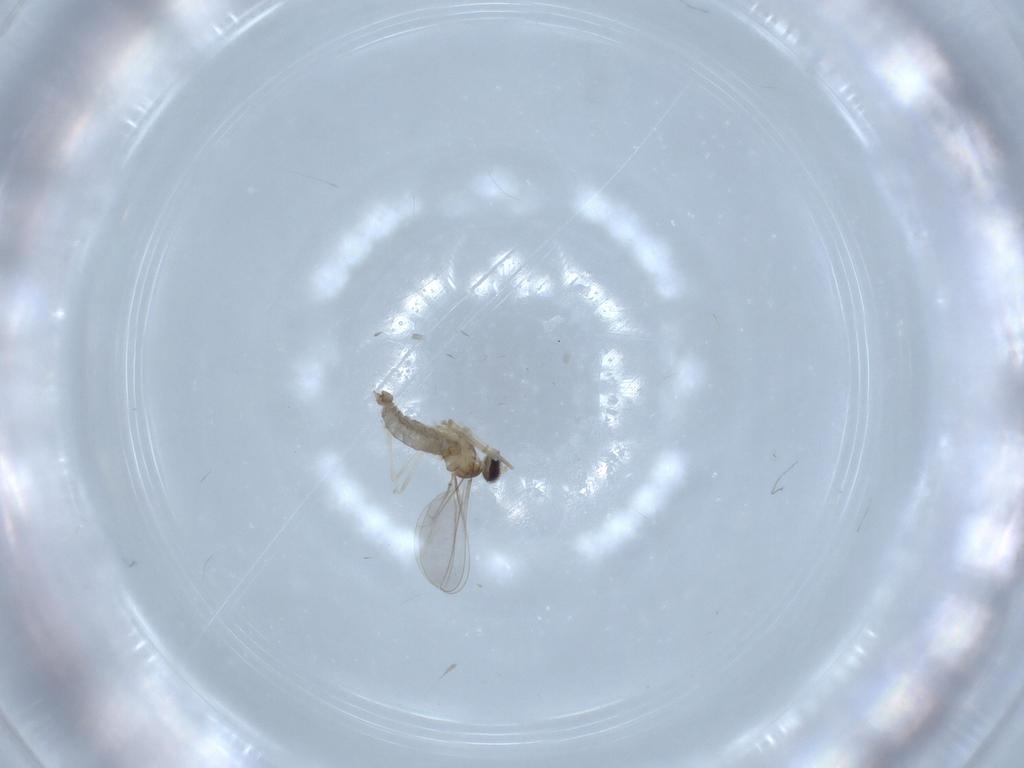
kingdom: Animalia
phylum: Arthropoda
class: Insecta
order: Diptera
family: Cecidomyiidae
